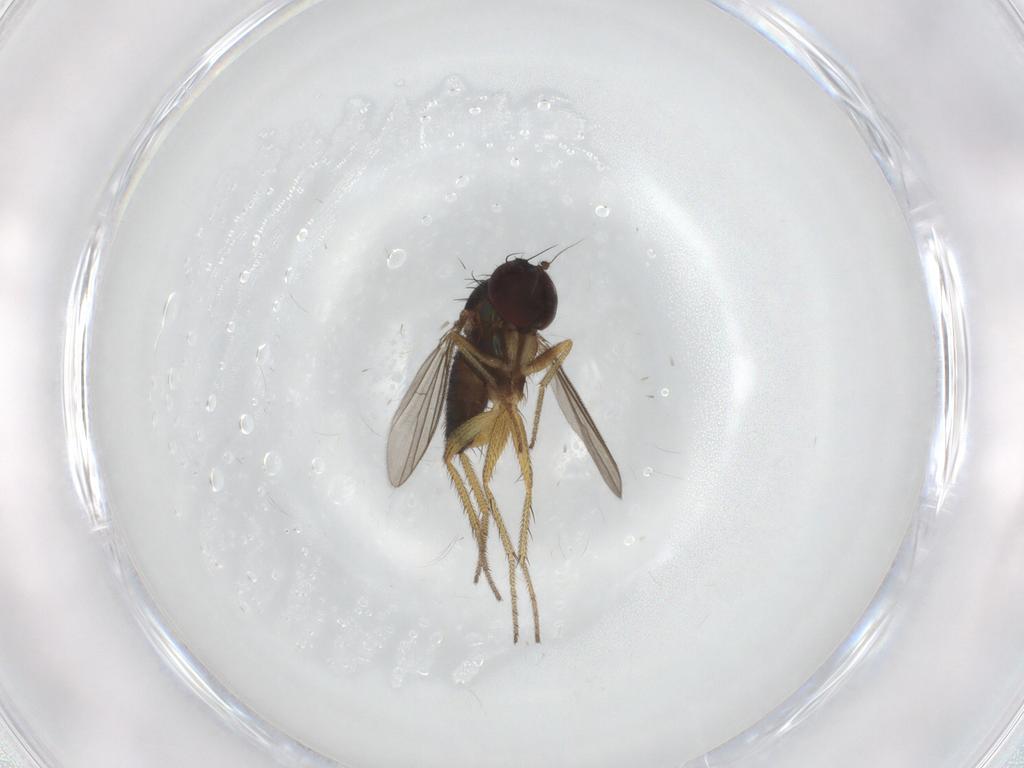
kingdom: Animalia
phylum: Arthropoda
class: Insecta
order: Diptera
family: Dolichopodidae
